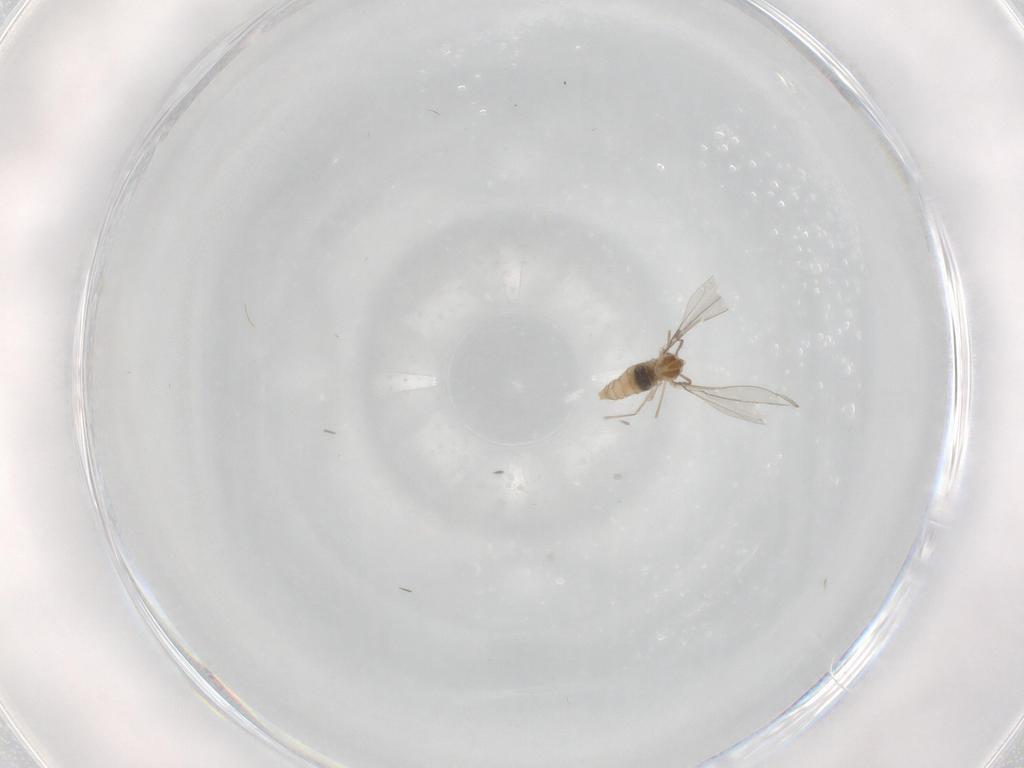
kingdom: Animalia
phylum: Arthropoda
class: Insecta
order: Diptera
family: Cecidomyiidae
